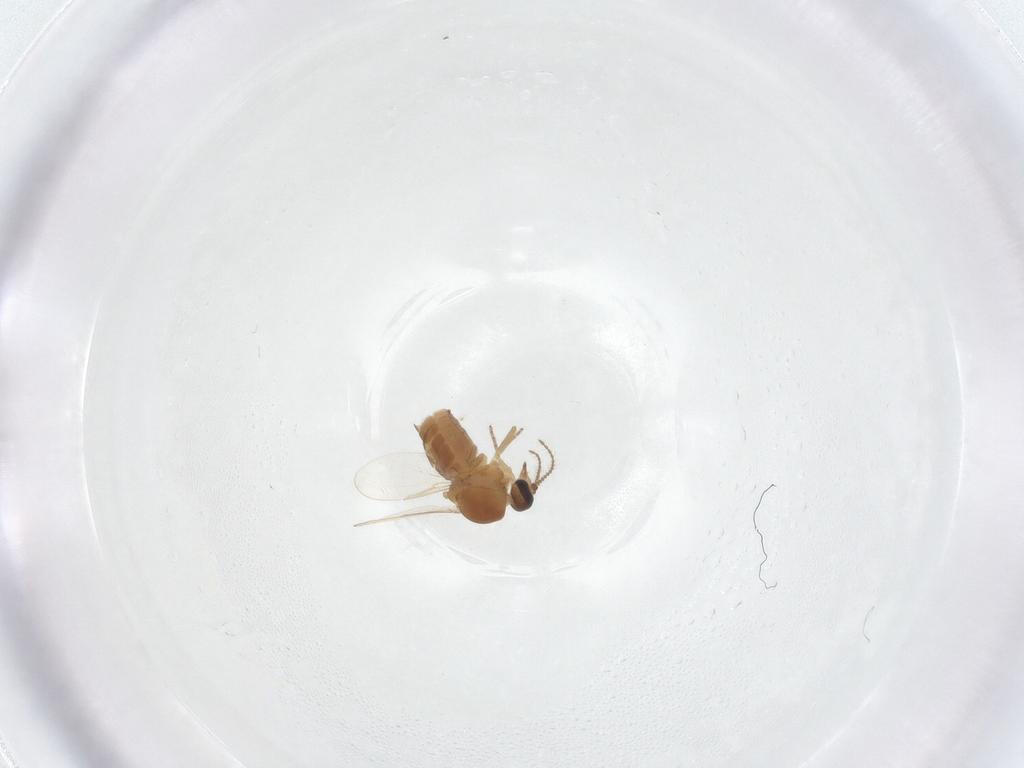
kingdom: Animalia
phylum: Arthropoda
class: Insecta
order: Diptera
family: Ceratopogonidae
